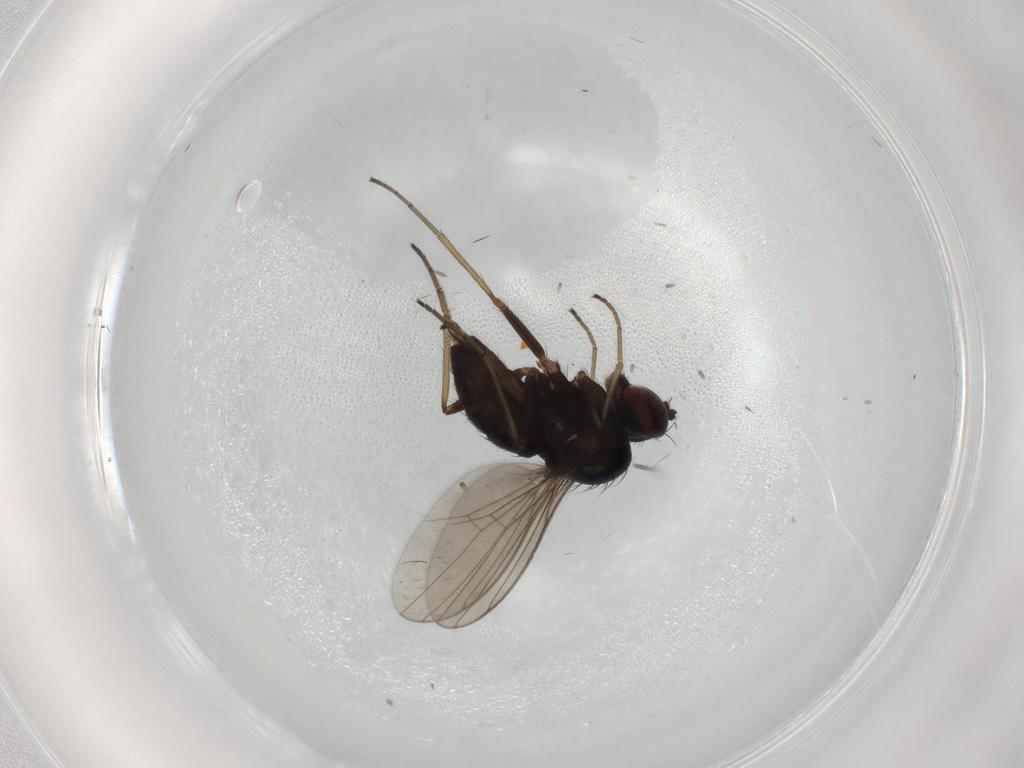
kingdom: Animalia
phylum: Arthropoda
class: Insecta
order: Diptera
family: Dolichopodidae
